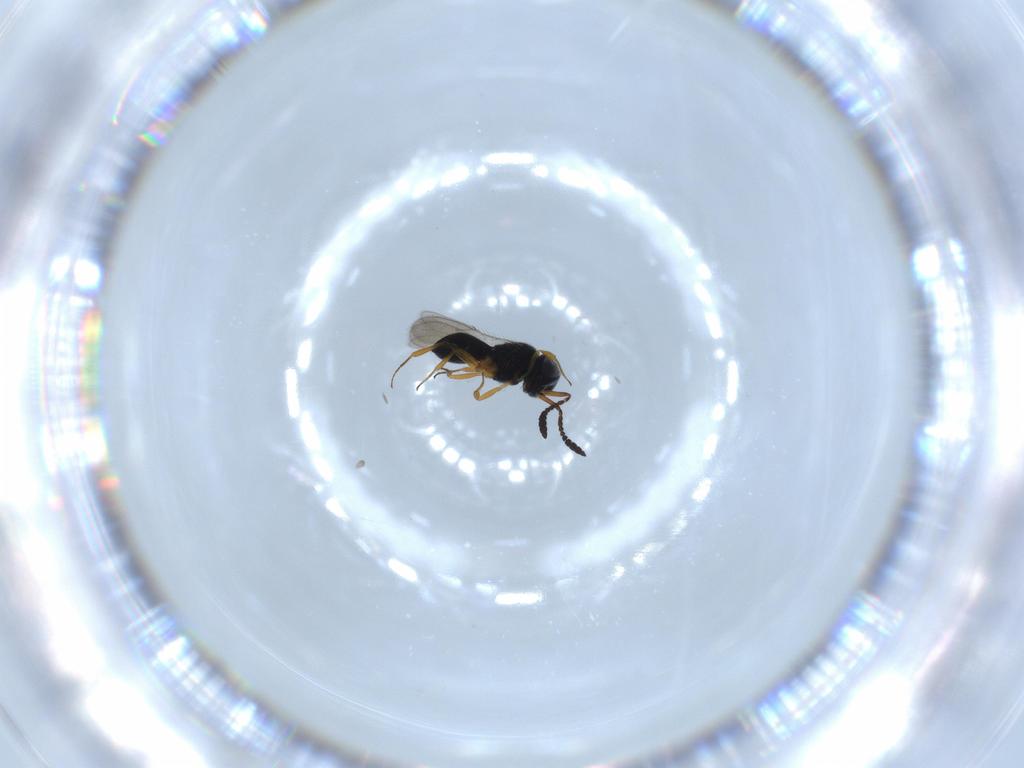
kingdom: Animalia
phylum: Arthropoda
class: Insecta
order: Hymenoptera
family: Scelionidae
